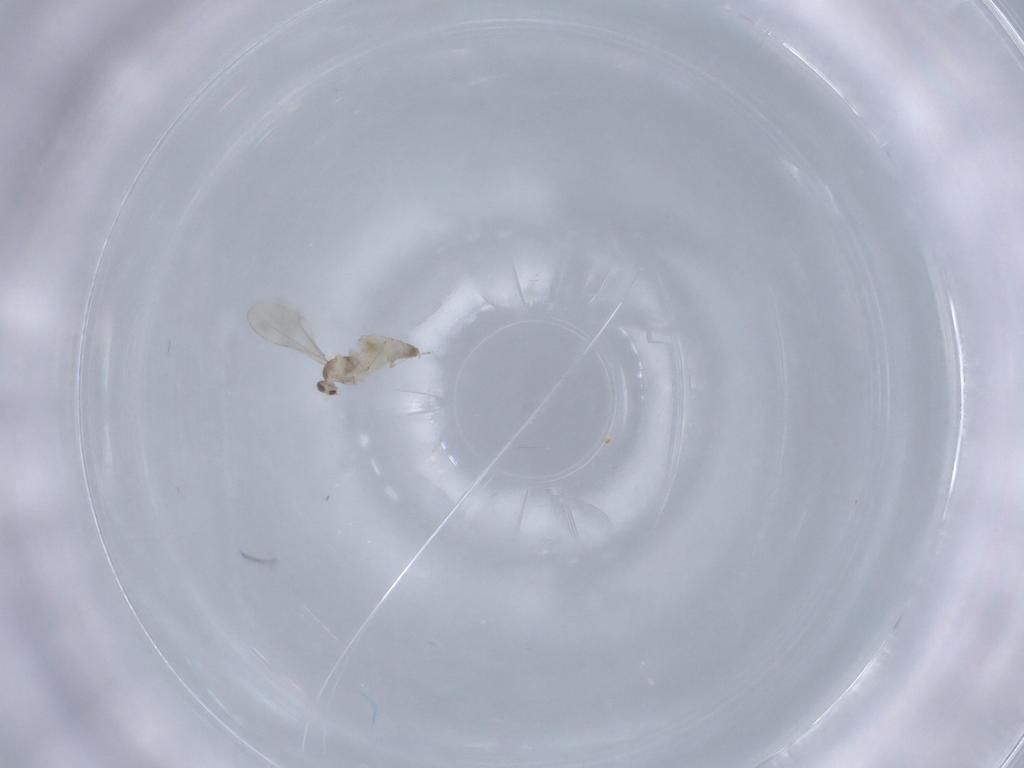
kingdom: Animalia
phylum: Arthropoda
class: Insecta
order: Diptera
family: Cecidomyiidae
